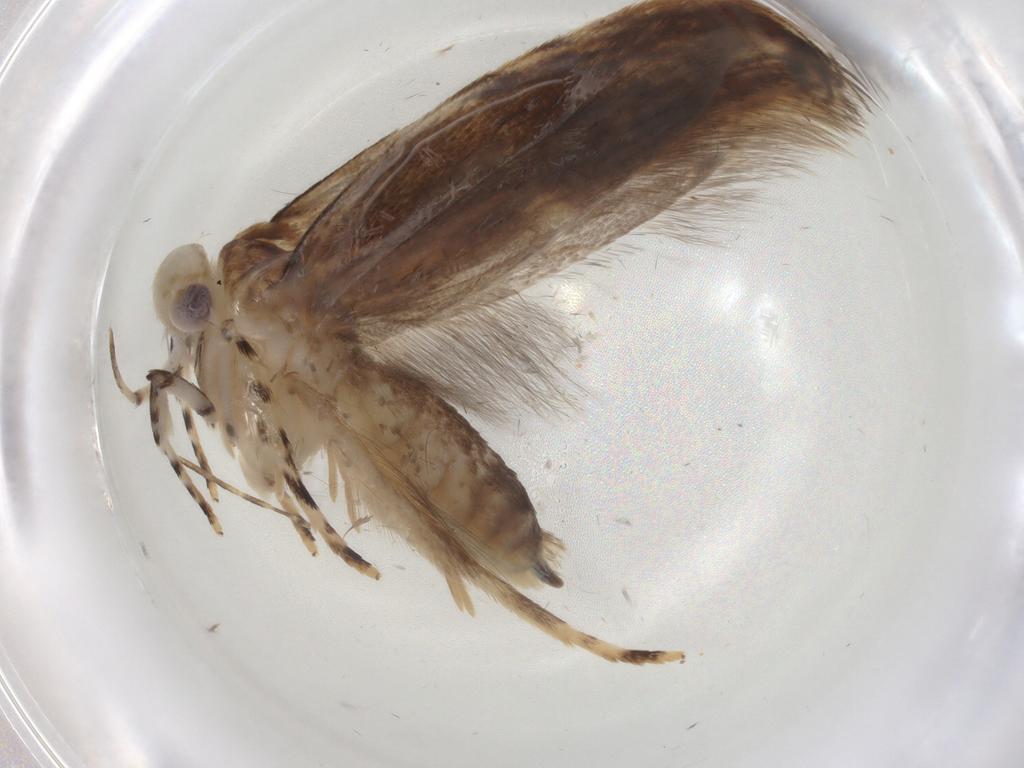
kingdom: Animalia
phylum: Arthropoda
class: Insecta
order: Lepidoptera
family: Gelechiidae
